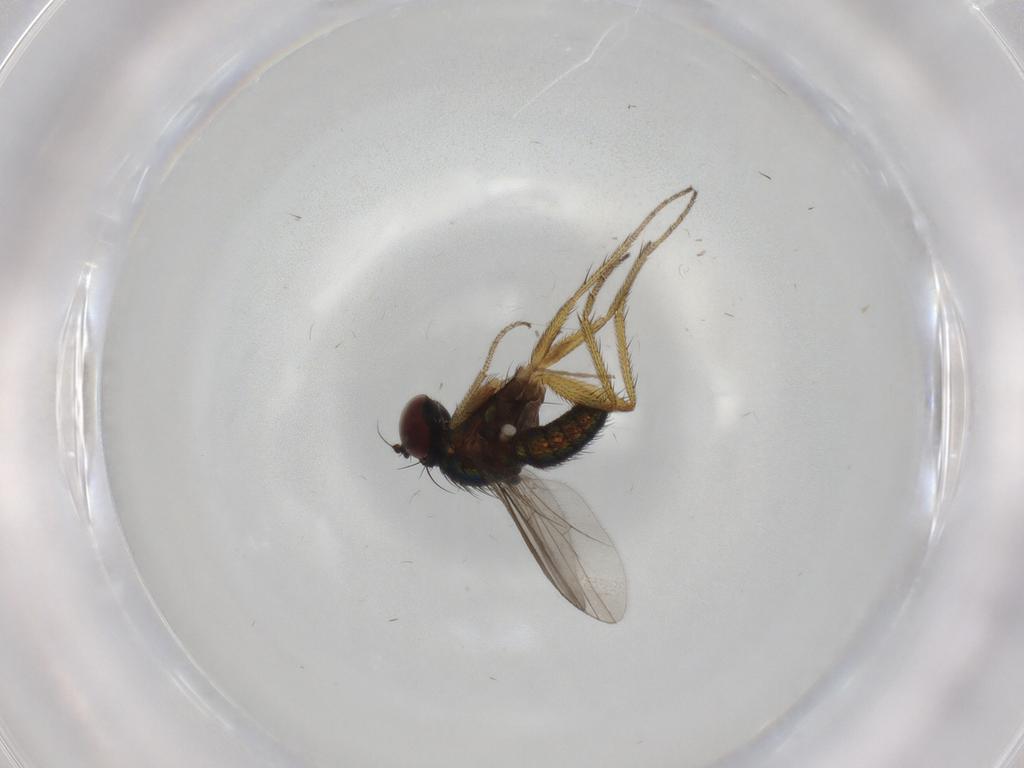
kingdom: Animalia
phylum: Arthropoda
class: Insecta
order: Diptera
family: Dolichopodidae
